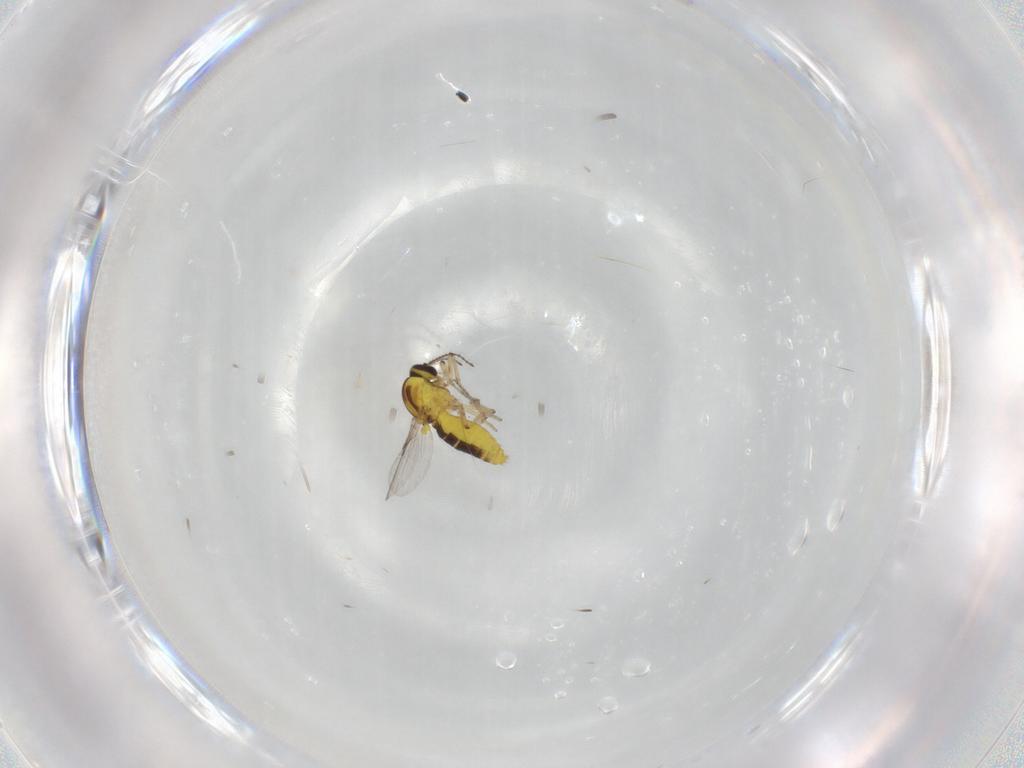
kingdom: Animalia
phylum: Arthropoda
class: Insecta
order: Diptera
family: Ceratopogonidae
